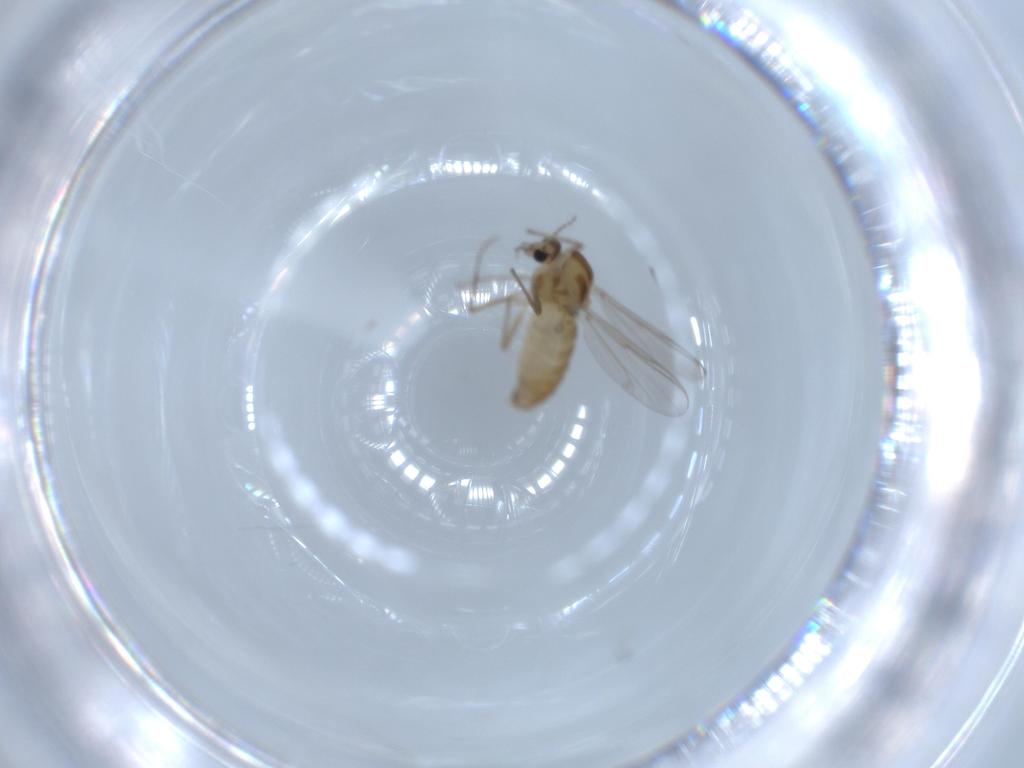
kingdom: Animalia
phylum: Arthropoda
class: Insecta
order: Diptera
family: Chironomidae
